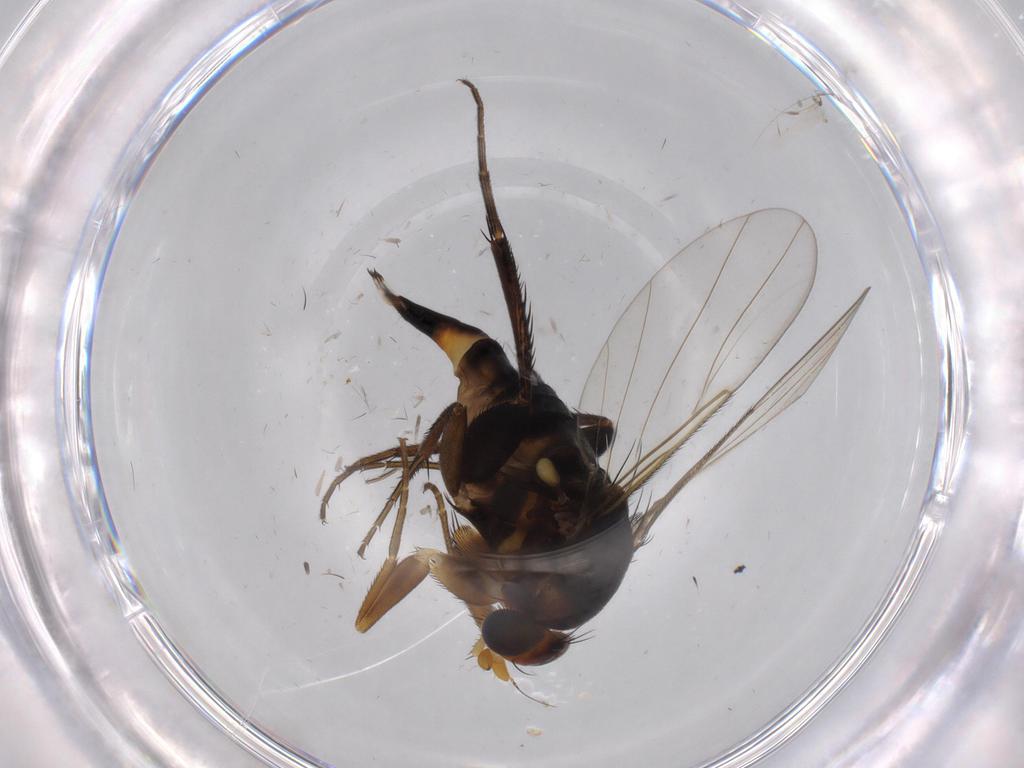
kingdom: Animalia
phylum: Arthropoda
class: Insecta
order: Diptera
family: Phoridae
